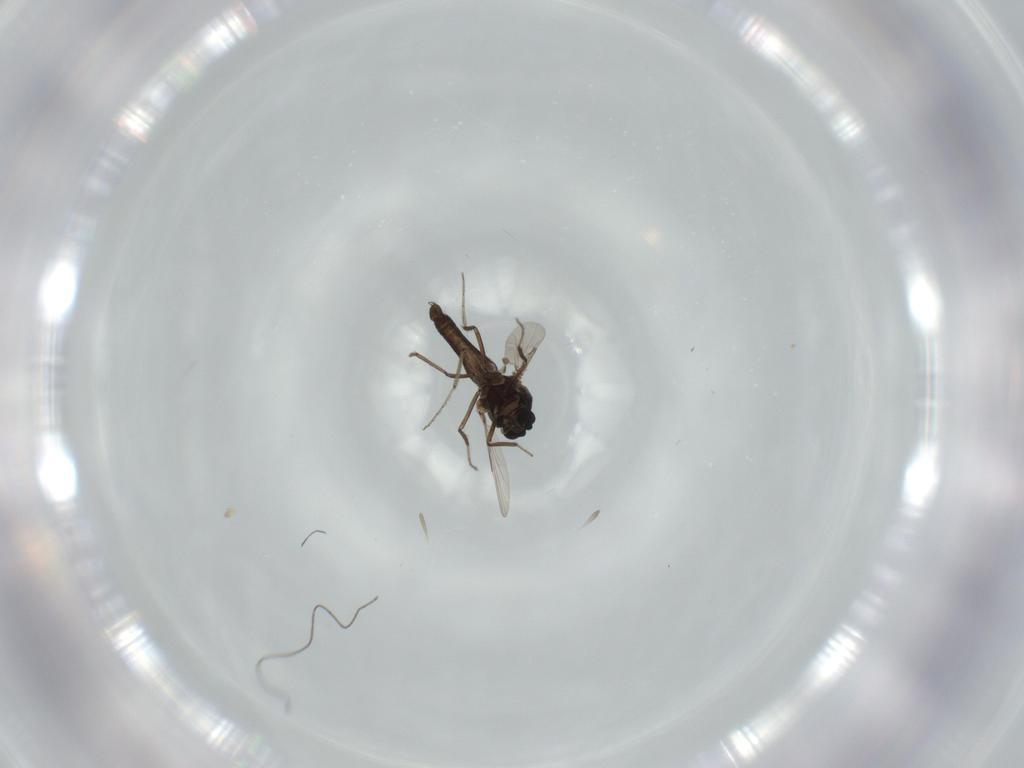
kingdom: Animalia
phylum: Arthropoda
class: Insecta
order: Diptera
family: Ceratopogonidae
